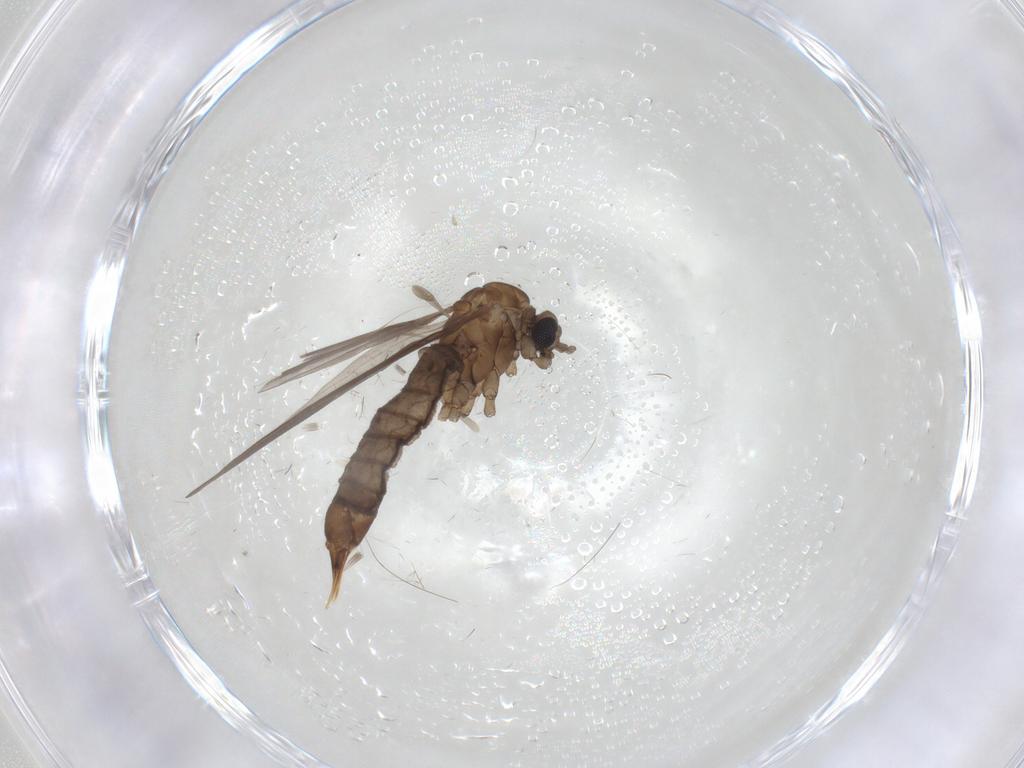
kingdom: Animalia
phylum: Arthropoda
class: Insecta
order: Diptera
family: Limoniidae
